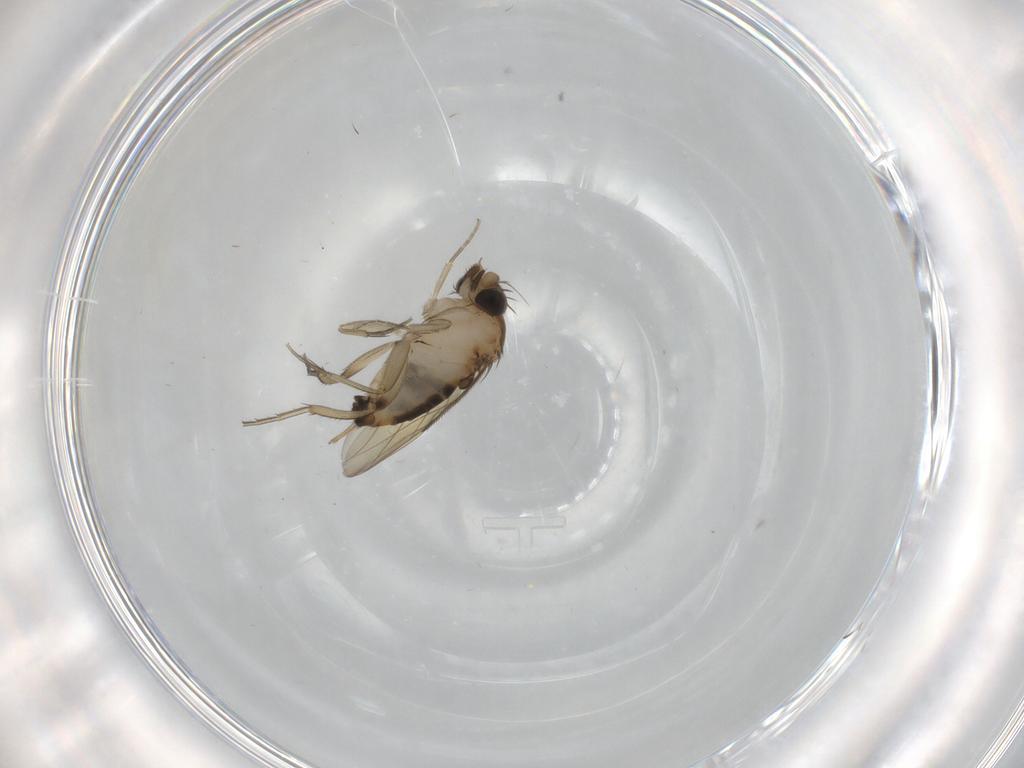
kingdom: Animalia
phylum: Arthropoda
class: Insecta
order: Diptera
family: Phoridae
